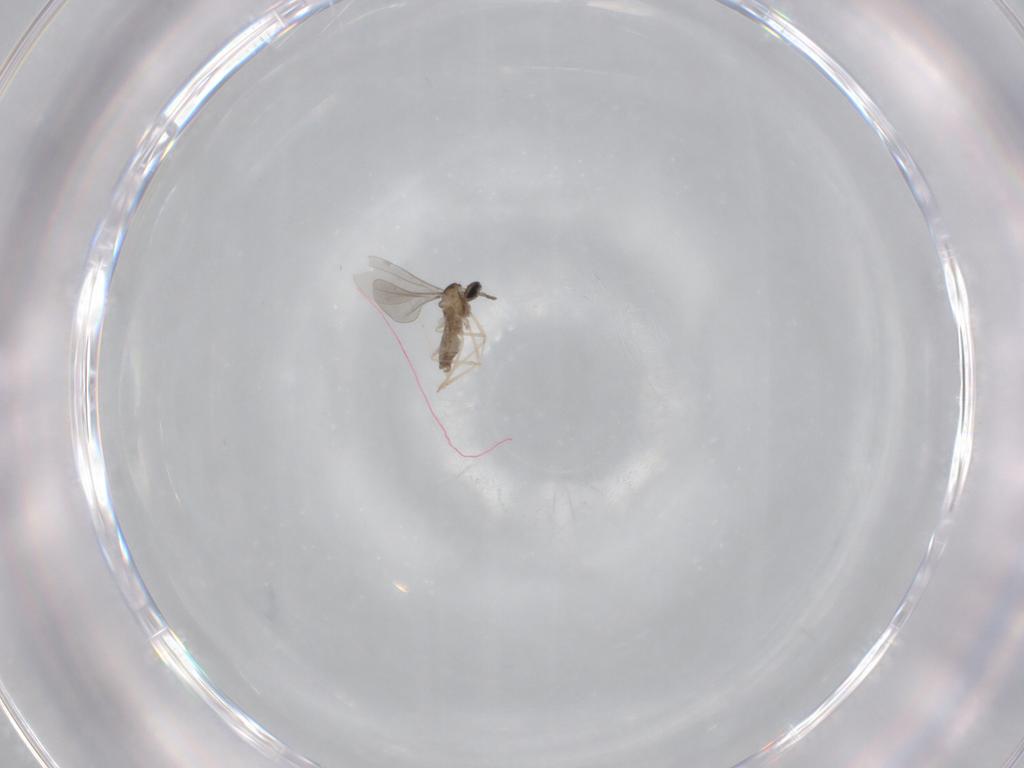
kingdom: Animalia
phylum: Arthropoda
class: Insecta
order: Diptera
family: Cecidomyiidae
